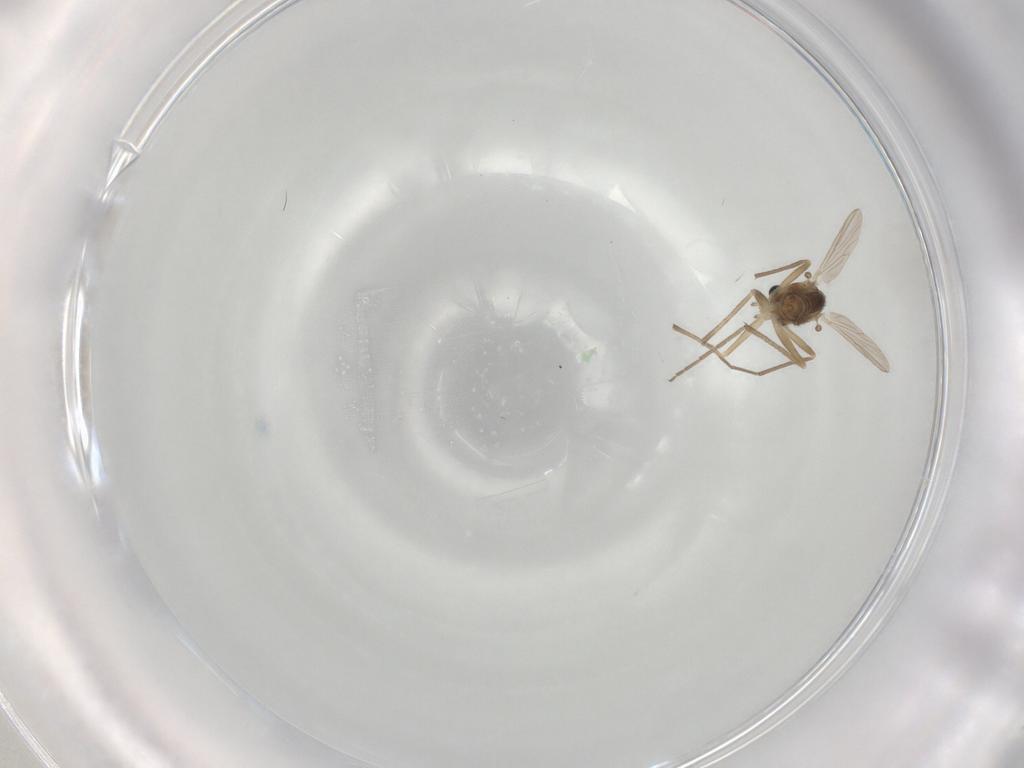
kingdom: Animalia
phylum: Arthropoda
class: Insecta
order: Diptera
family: Chironomidae
